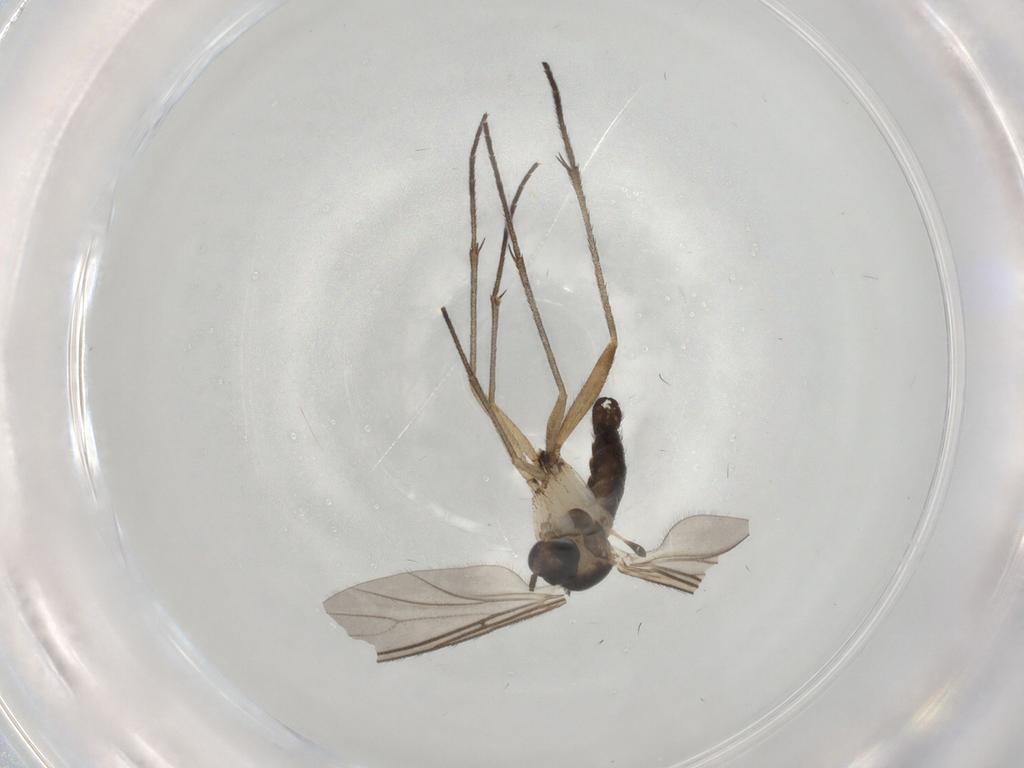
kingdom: Animalia
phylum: Arthropoda
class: Insecta
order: Diptera
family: Sciaridae
